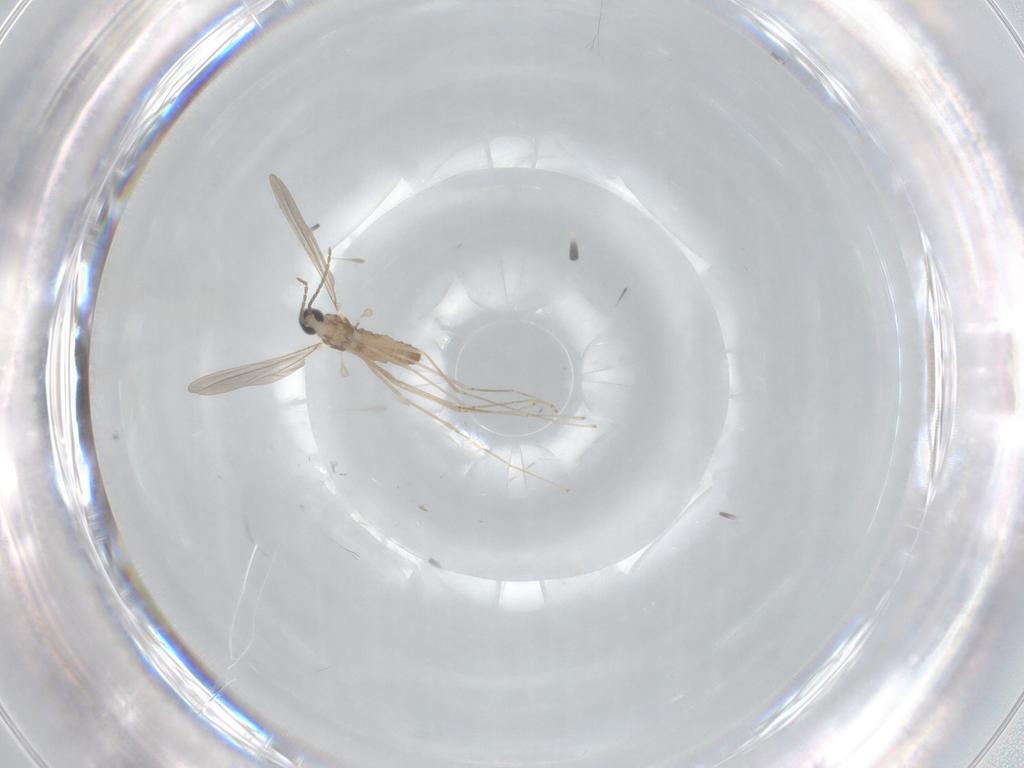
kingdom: Animalia
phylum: Arthropoda
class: Insecta
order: Diptera
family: Cecidomyiidae
